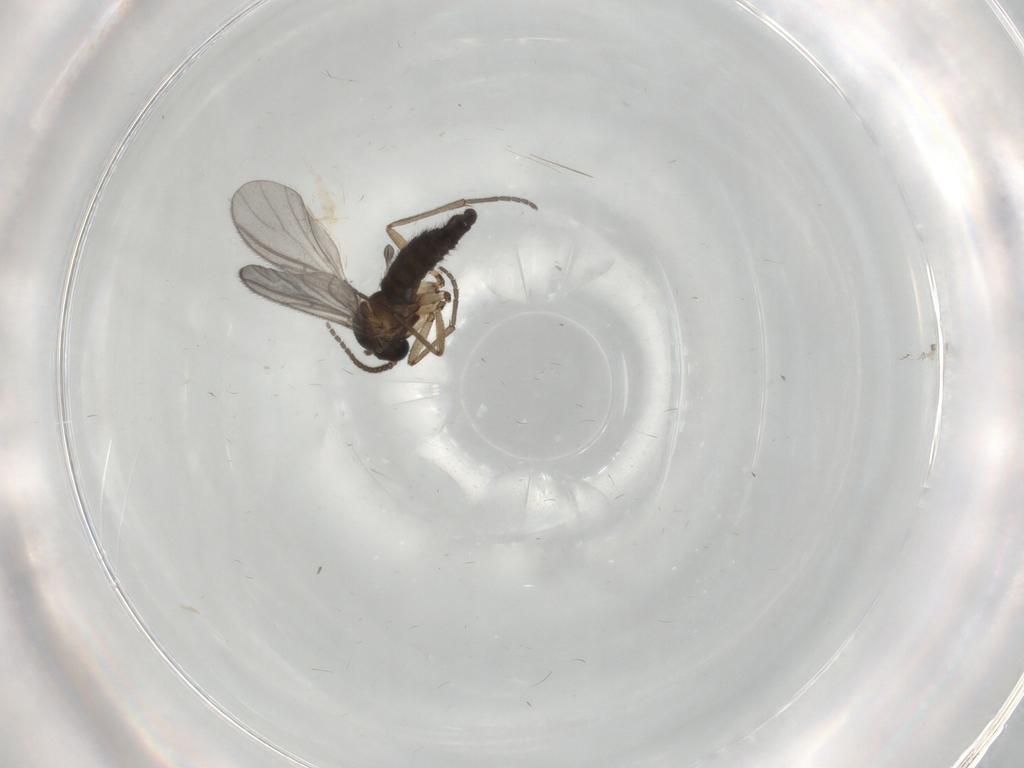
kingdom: Animalia
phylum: Arthropoda
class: Insecta
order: Diptera
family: Sciaridae
